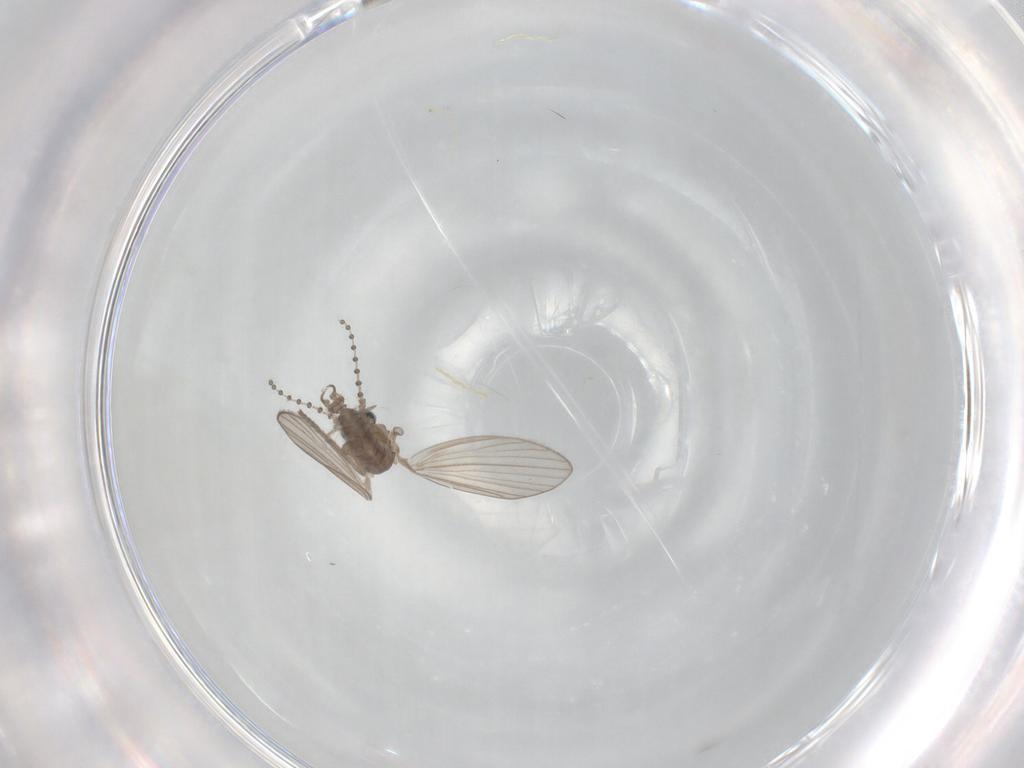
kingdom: Animalia
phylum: Arthropoda
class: Insecta
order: Diptera
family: Psychodidae
